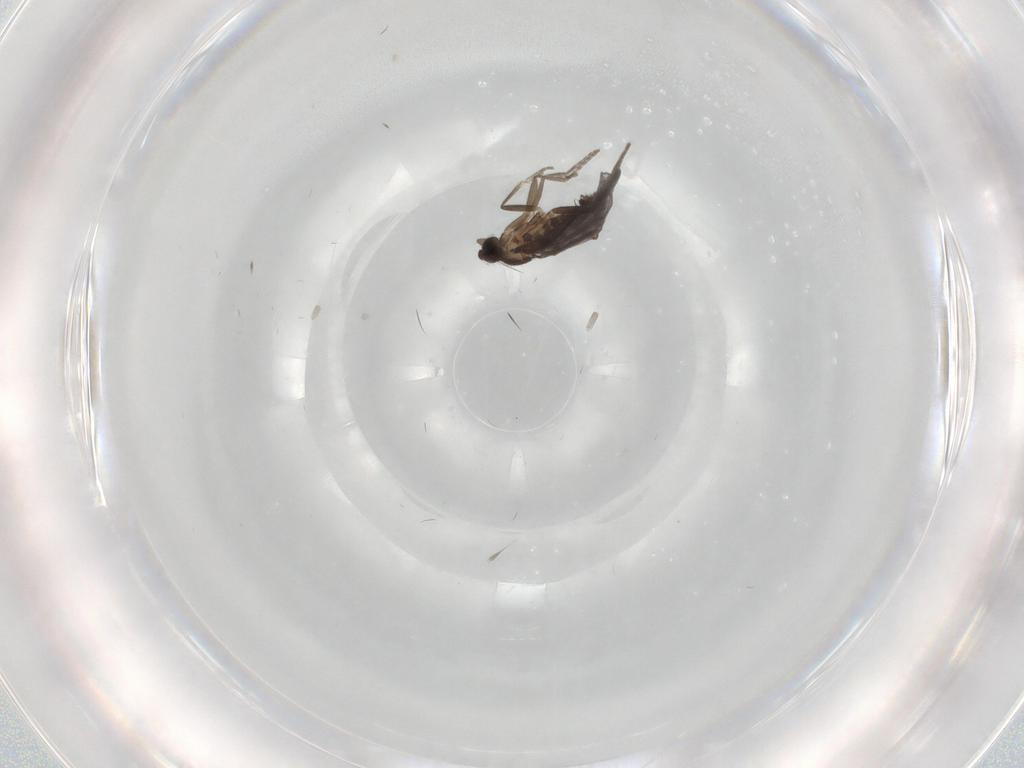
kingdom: Animalia
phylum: Arthropoda
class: Insecta
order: Diptera
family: Phoridae
